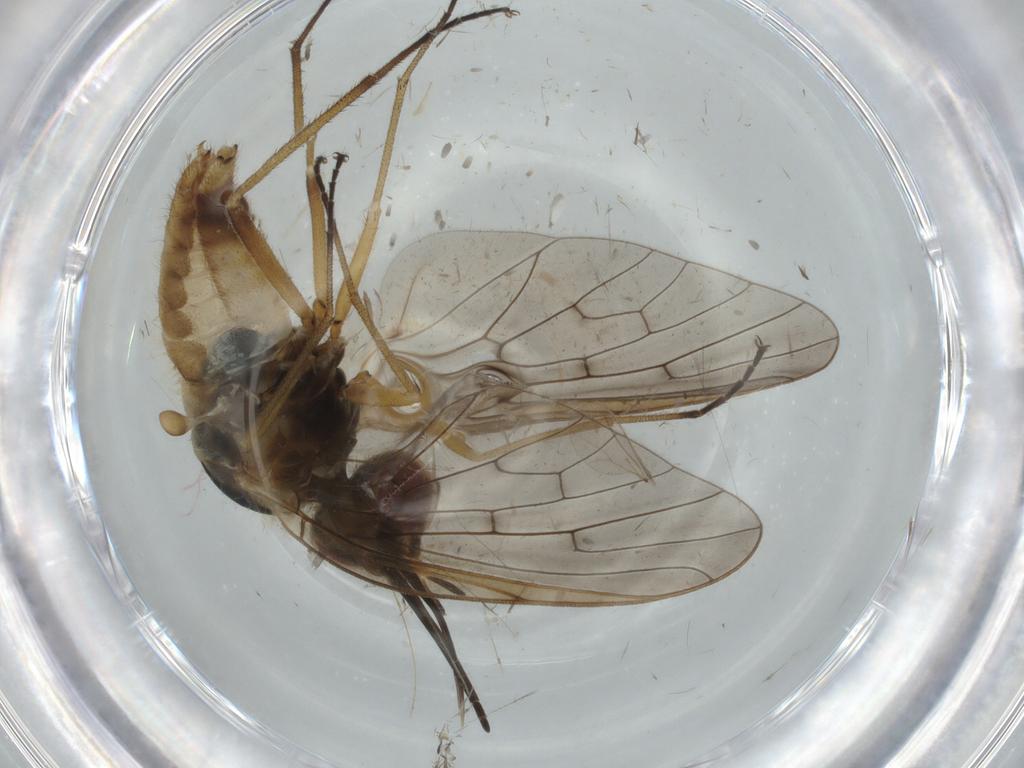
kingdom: Animalia
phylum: Arthropoda
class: Insecta
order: Diptera
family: Bombyliidae
